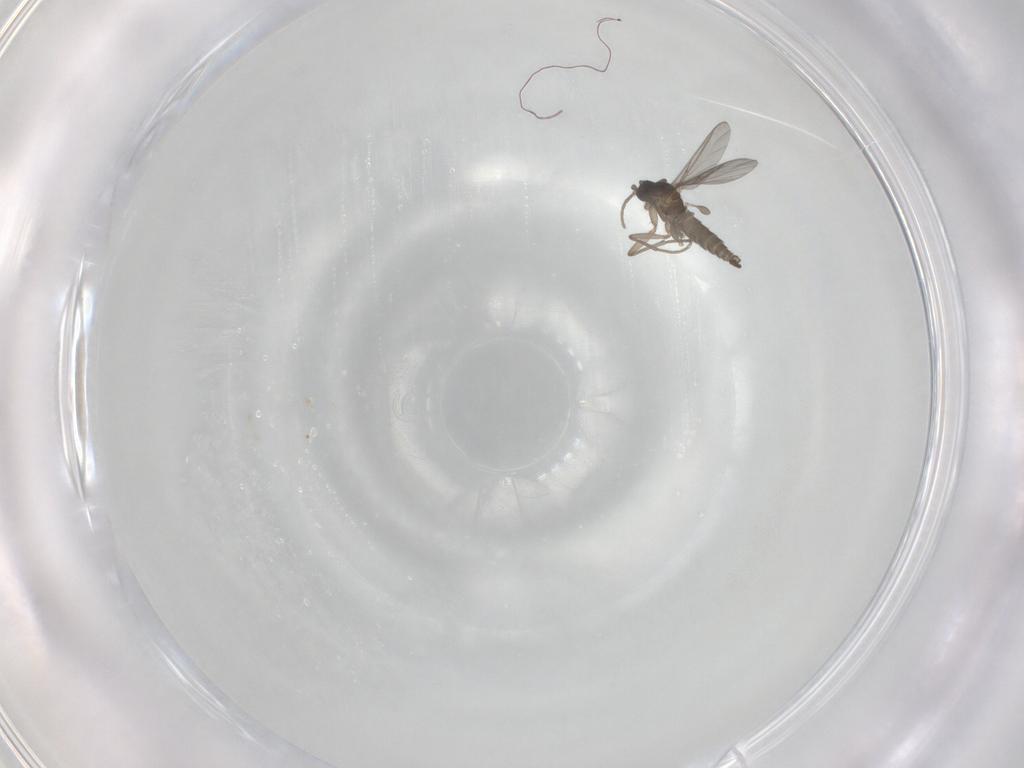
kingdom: Animalia
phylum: Arthropoda
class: Insecta
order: Diptera
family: Sciaridae
